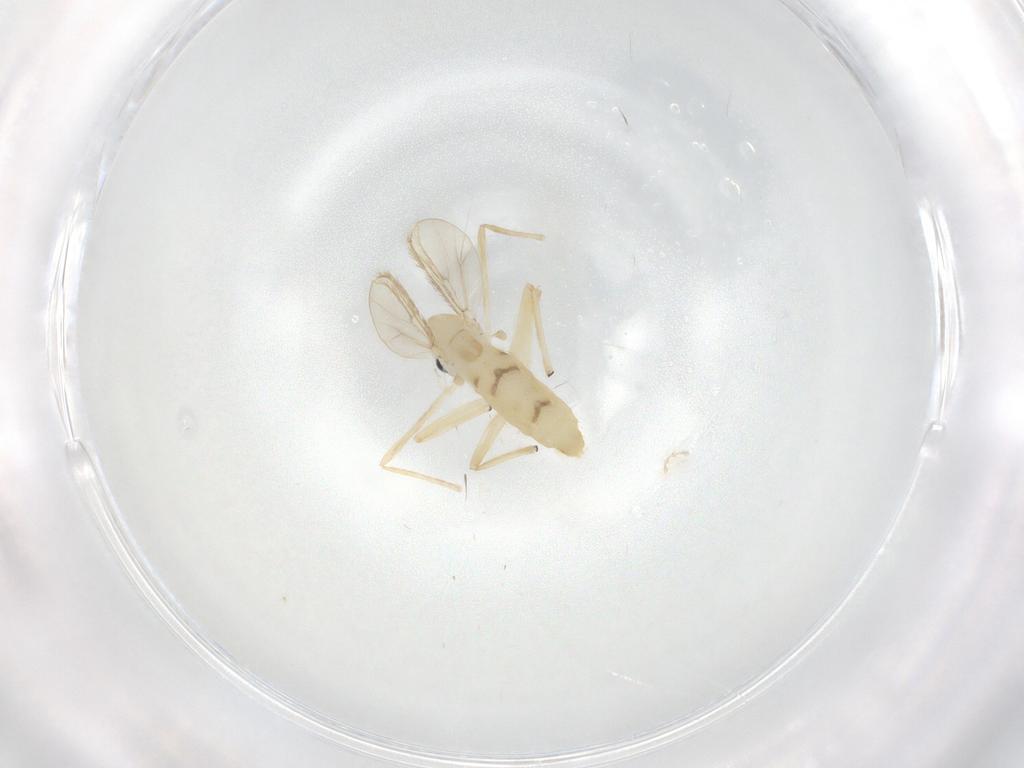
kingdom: Animalia
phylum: Arthropoda
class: Insecta
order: Diptera
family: Chironomidae
